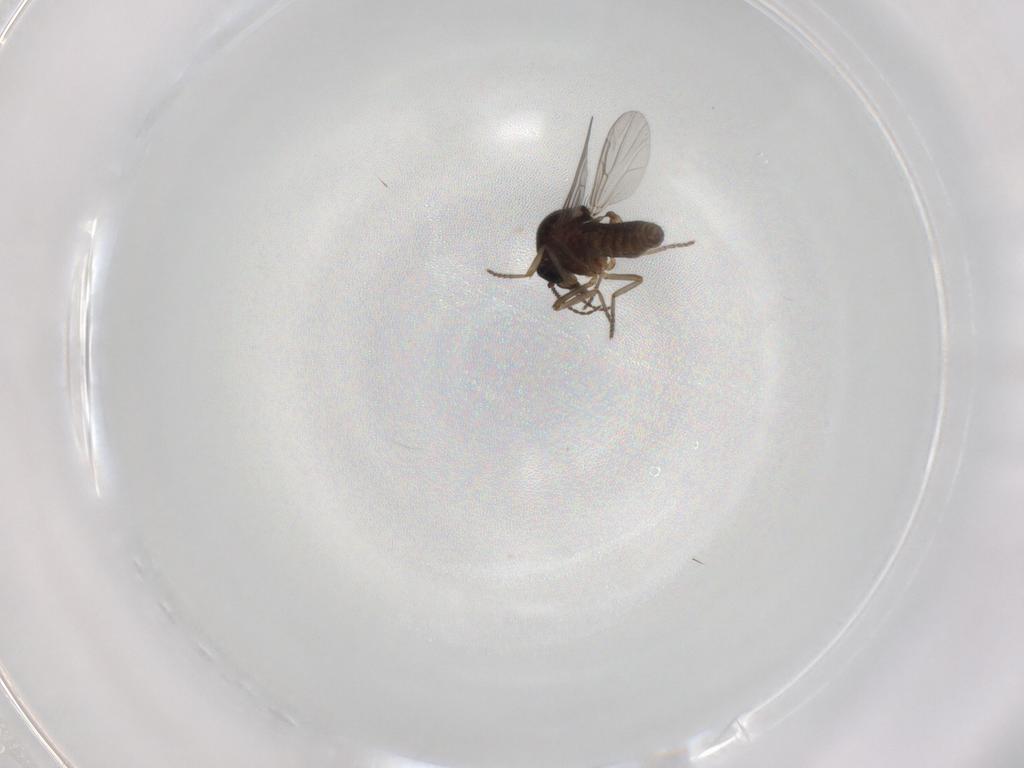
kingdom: Animalia
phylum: Arthropoda
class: Insecta
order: Diptera
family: Ceratopogonidae
